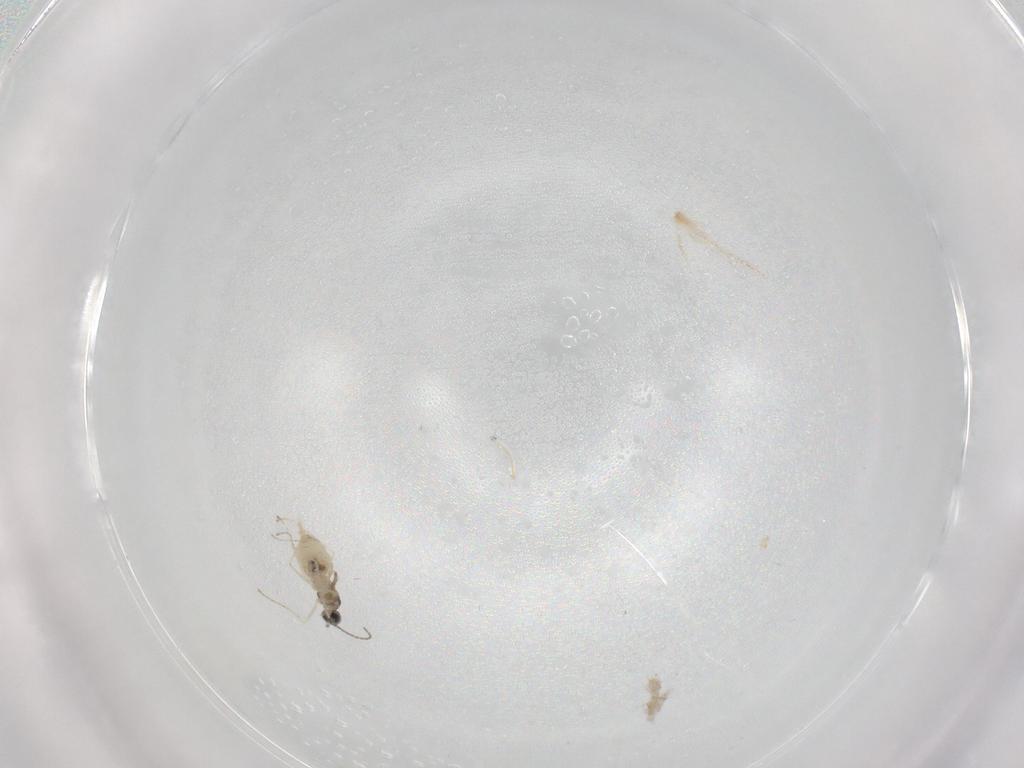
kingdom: Animalia
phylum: Arthropoda
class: Insecta
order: Diptera
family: Phoridae
